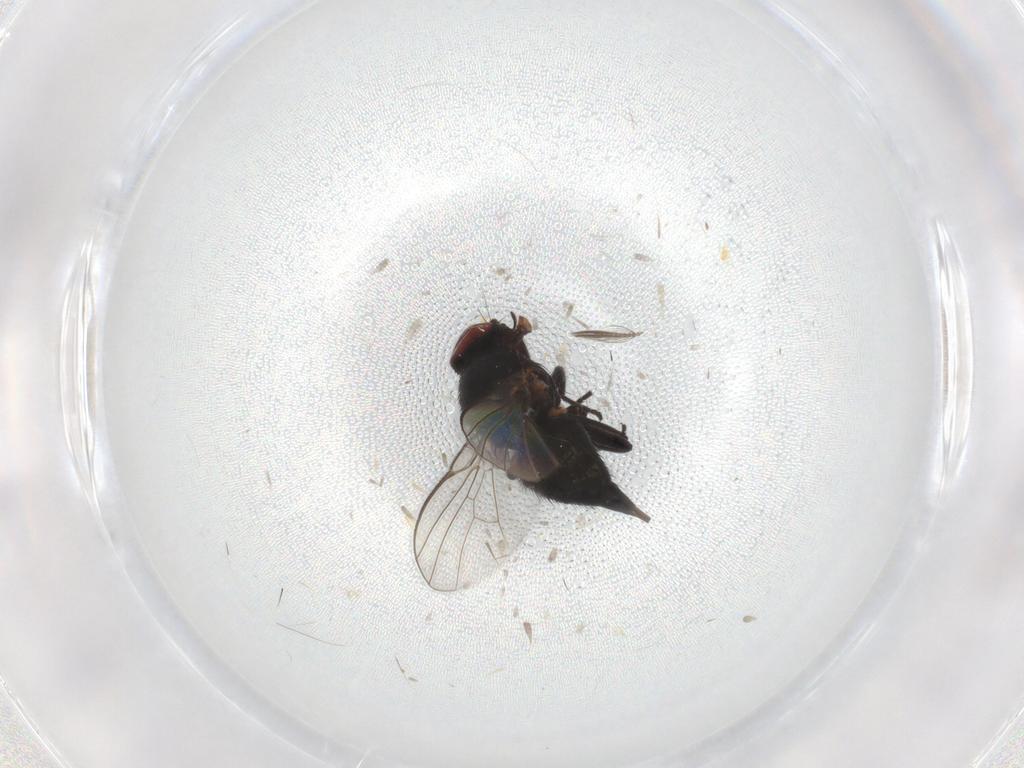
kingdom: Animalia
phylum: Arthropoda
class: Insecta
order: Diptera
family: Agromyzidae
